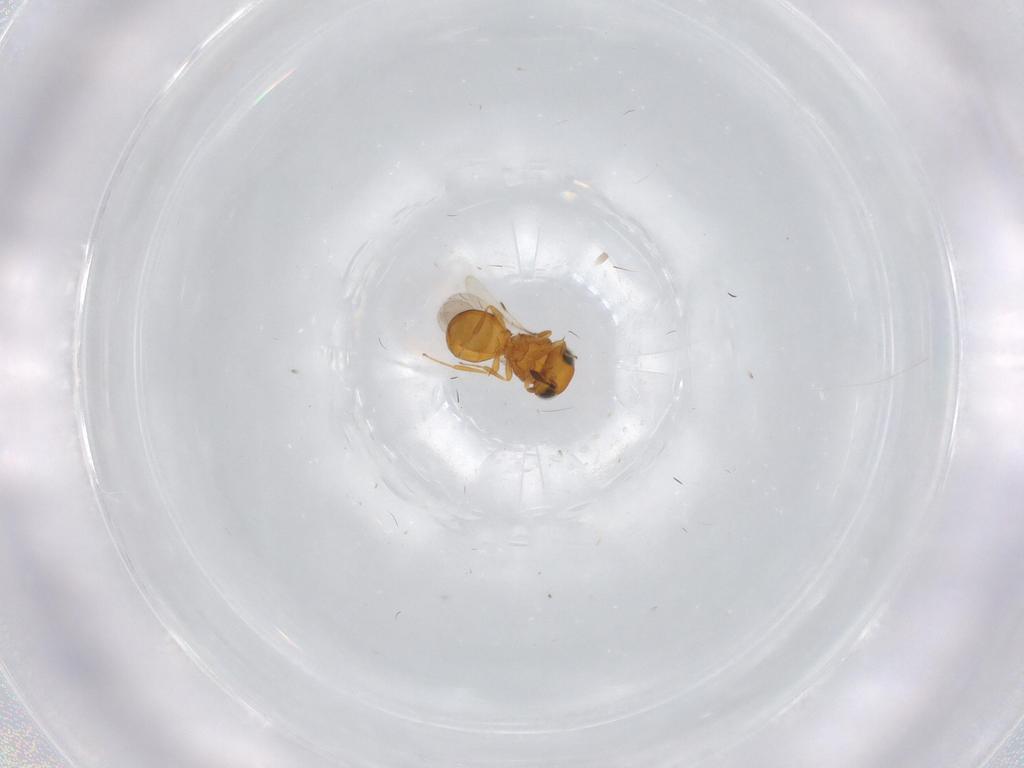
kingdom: Animalia
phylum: Arthropoda
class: Insecta
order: Hymenoptera
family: Scelionidae
